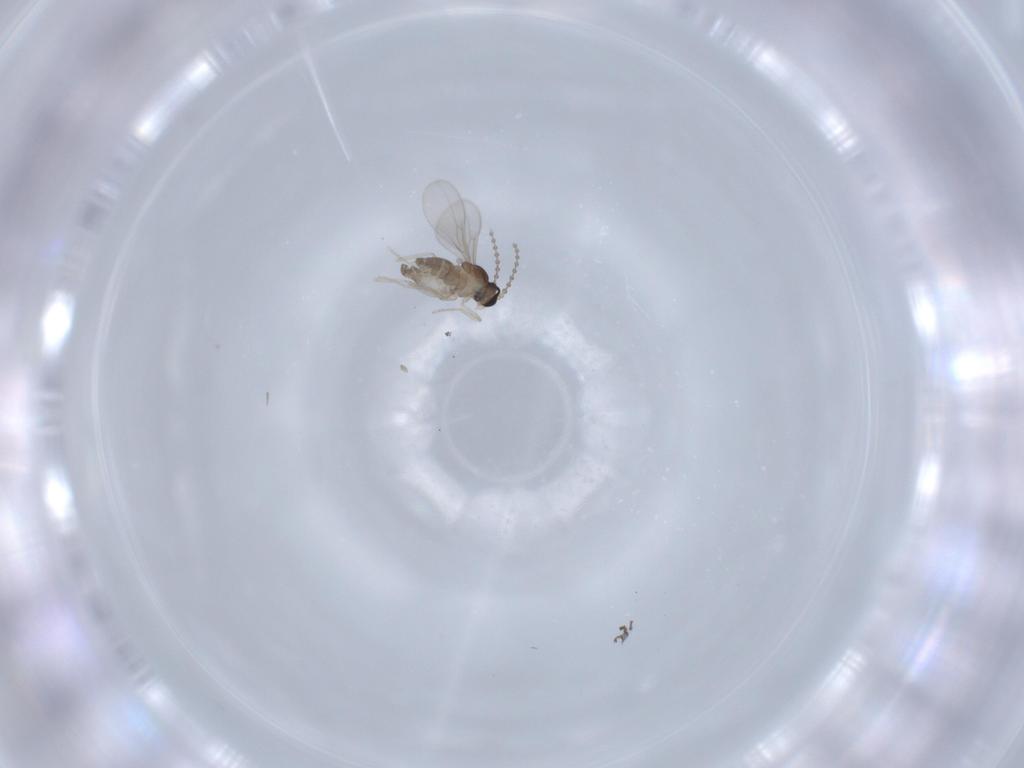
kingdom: Animalia
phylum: Arthropoda
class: Insecta
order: Diptera
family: Cecidomyiidae
